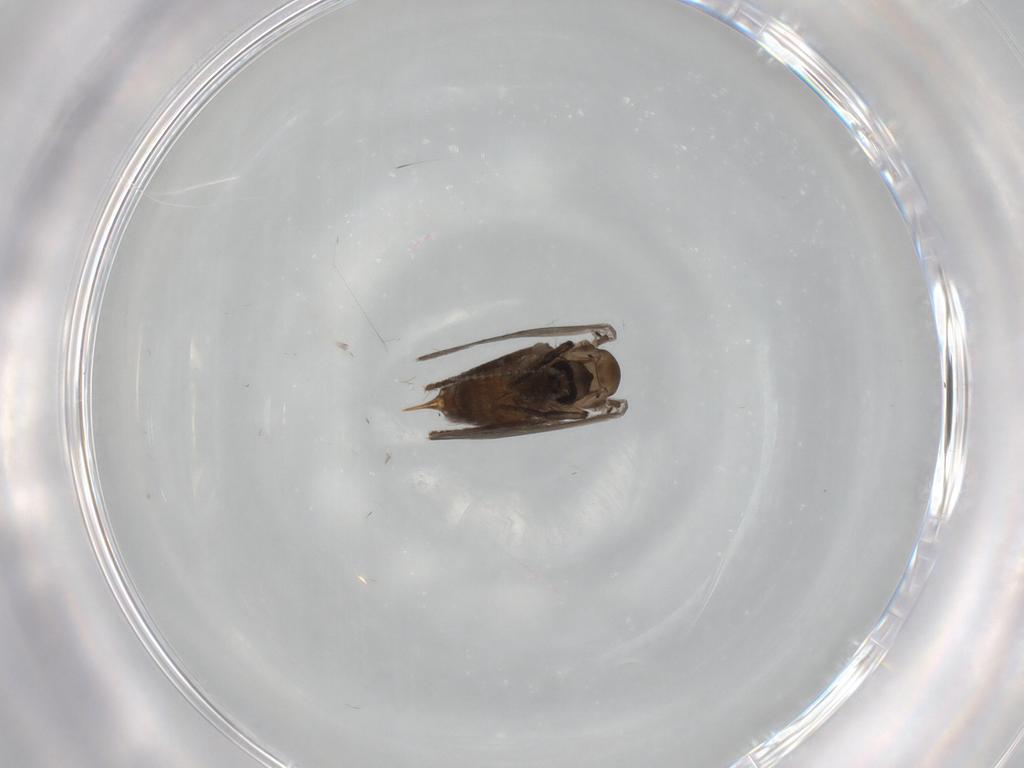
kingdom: Animalia
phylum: Arthropoda
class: Insecta
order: Diptera
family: Psychodidae
